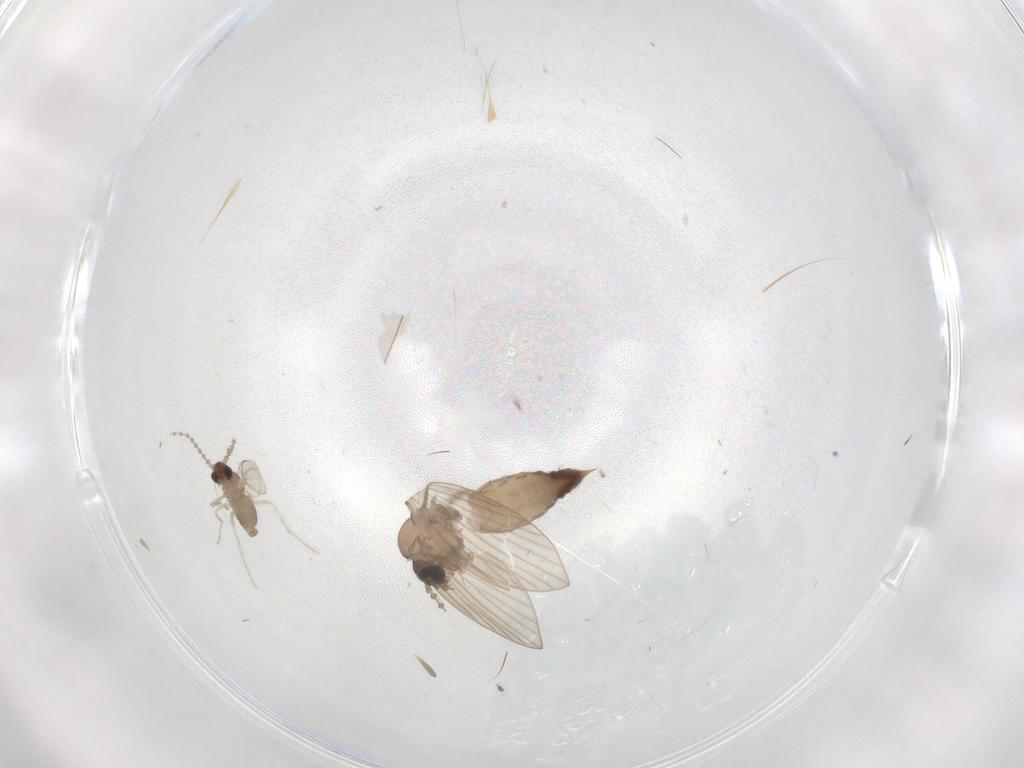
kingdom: Animalia
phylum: Arthropoda
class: Insecta
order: Diptera
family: Psychodidae
